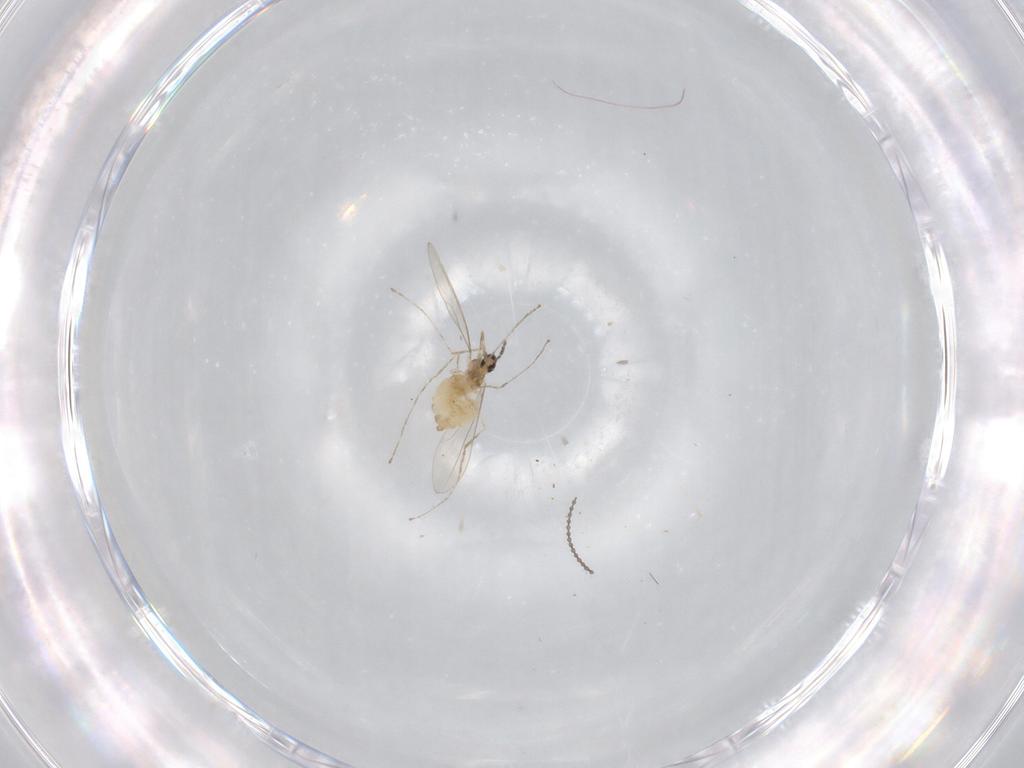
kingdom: Animalia
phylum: Arthropoda
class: Insecta
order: Diptera
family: Cecidomyiidae
